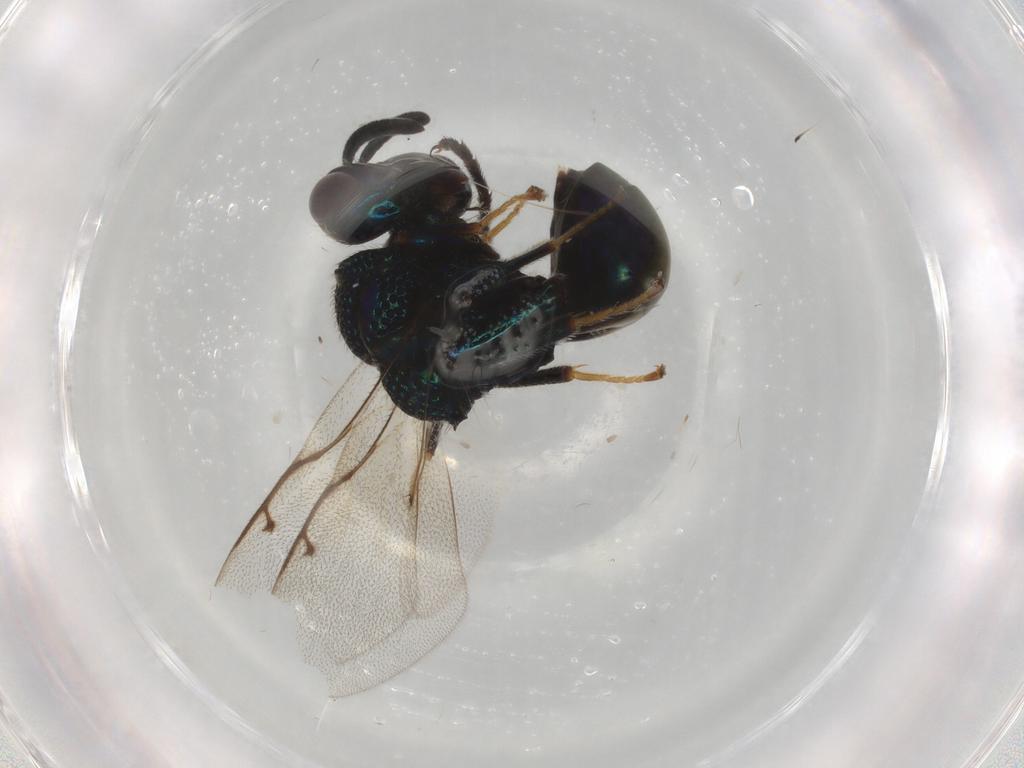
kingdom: Animalia
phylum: Arthropoda
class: Insecta
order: Hymenoptera
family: Perilampidae
